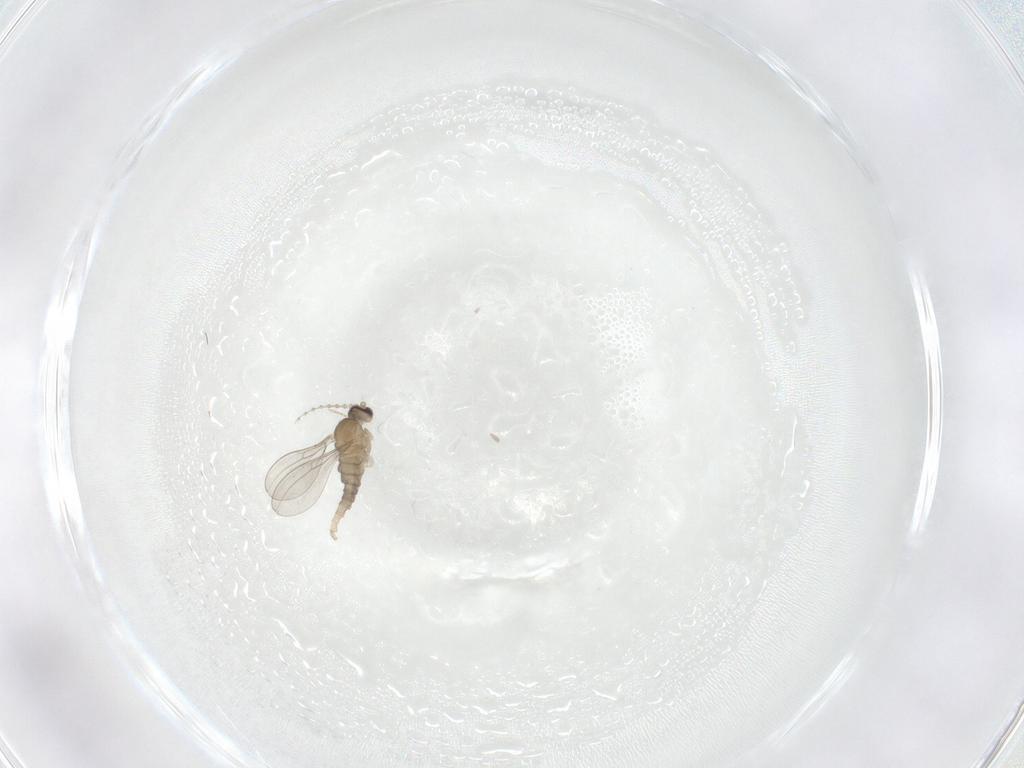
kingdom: Animalia
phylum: Arthropoda
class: Insecta
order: Diptera
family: Cecidomyiidae
